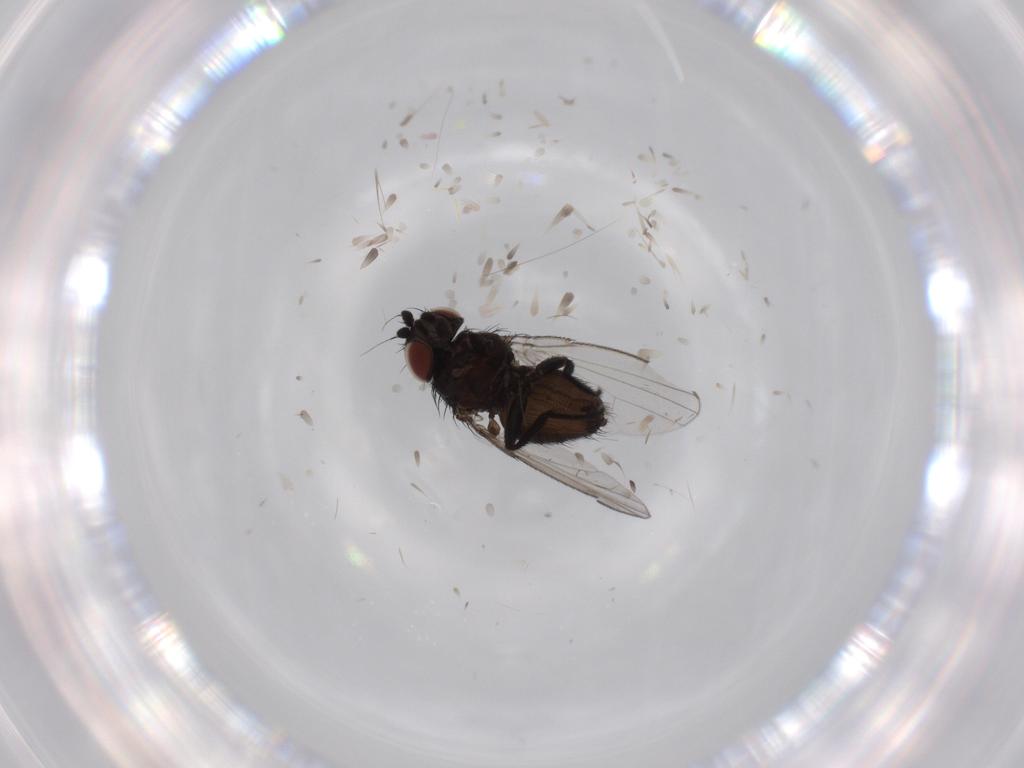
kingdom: Animalia
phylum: Arthropoda
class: Insecta
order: Diptera
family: Milichiidae
